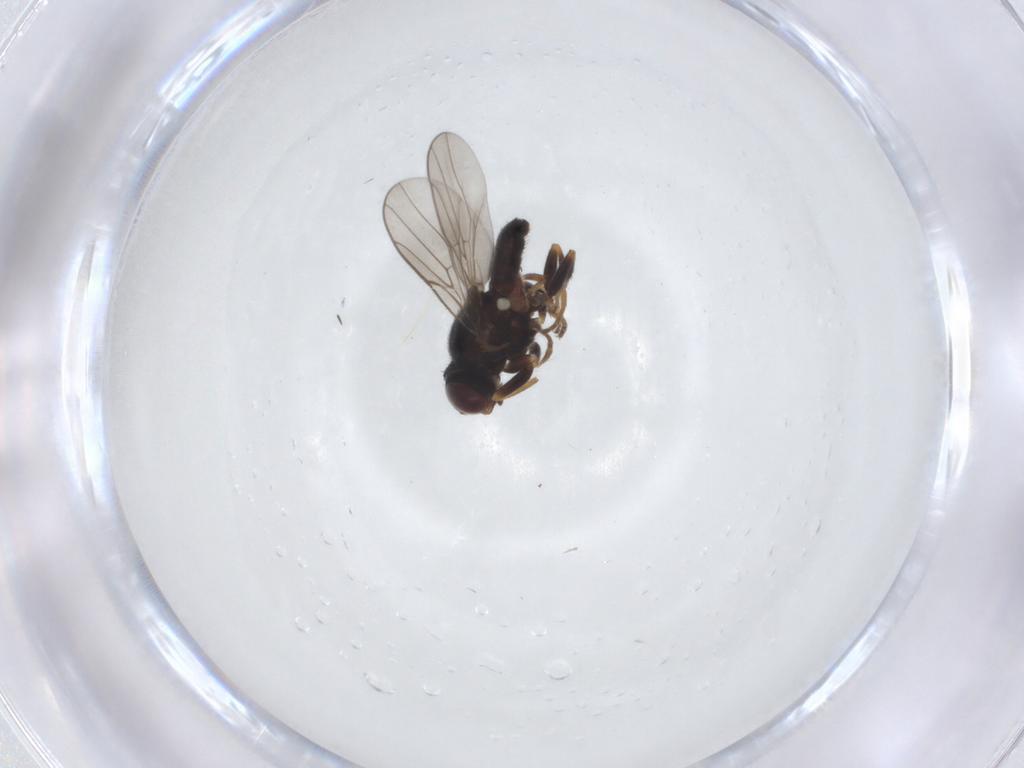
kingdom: Animalia
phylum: Arthropoda
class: Insecta
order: Diptera
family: Chloropidae
